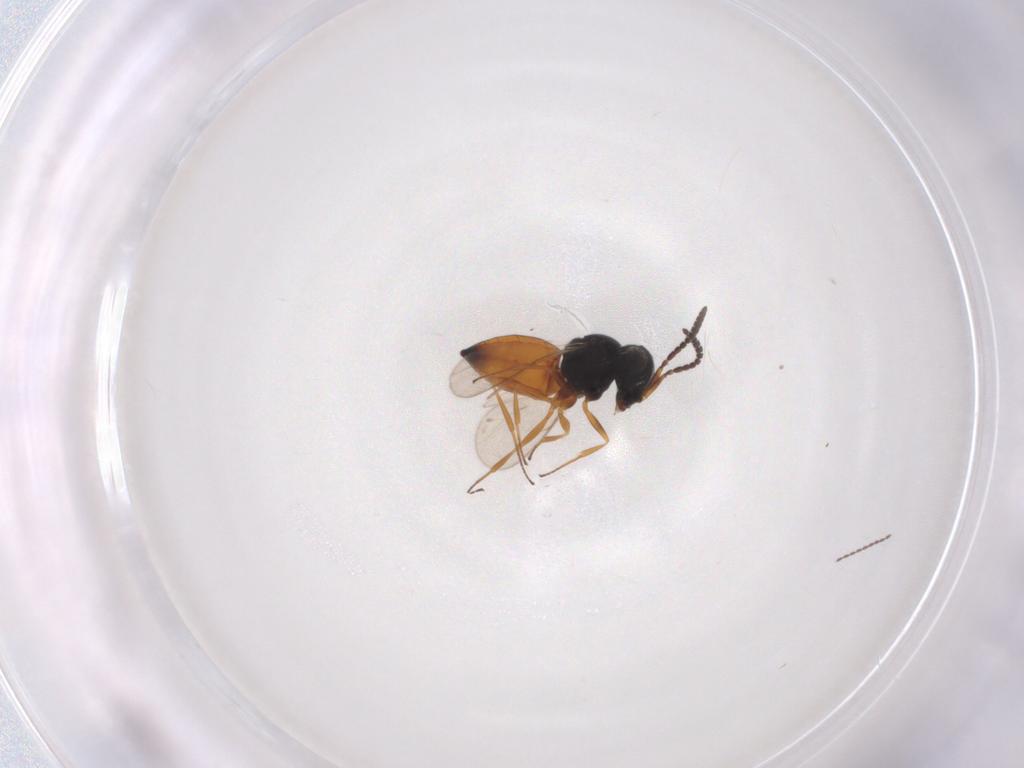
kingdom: Animalia
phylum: Arthropoda
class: Insecta
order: Hymenoptera
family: Scelionidae
